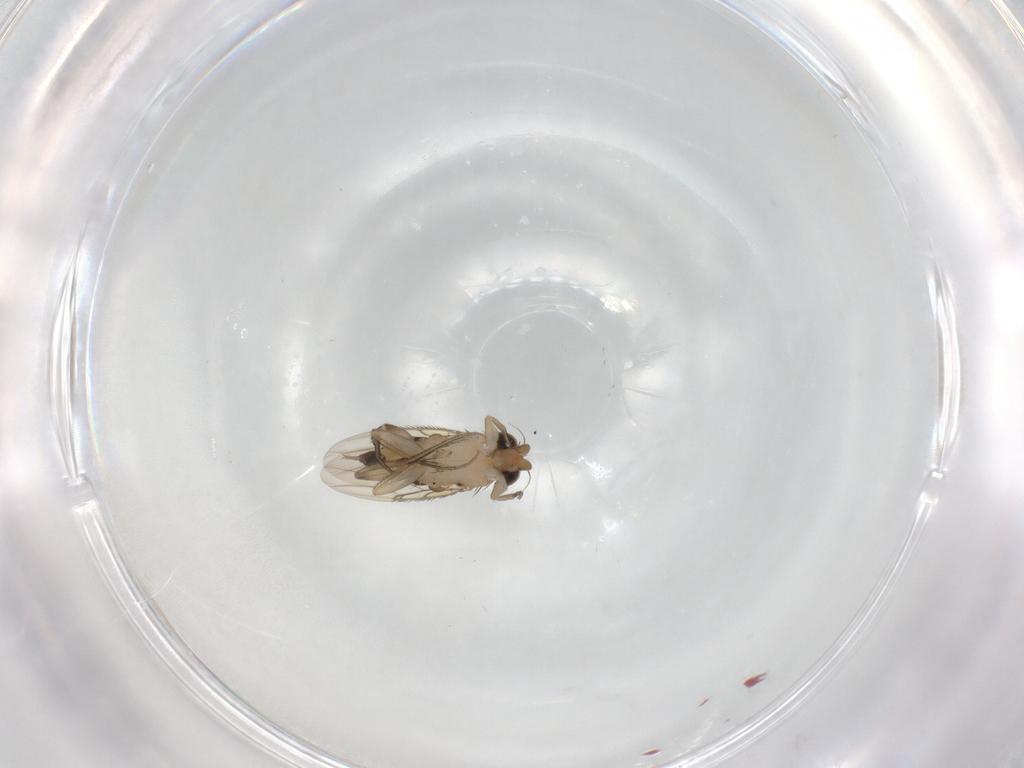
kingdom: Animalia
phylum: Arthropoda
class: Insecta
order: Diptera
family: Phoridae
